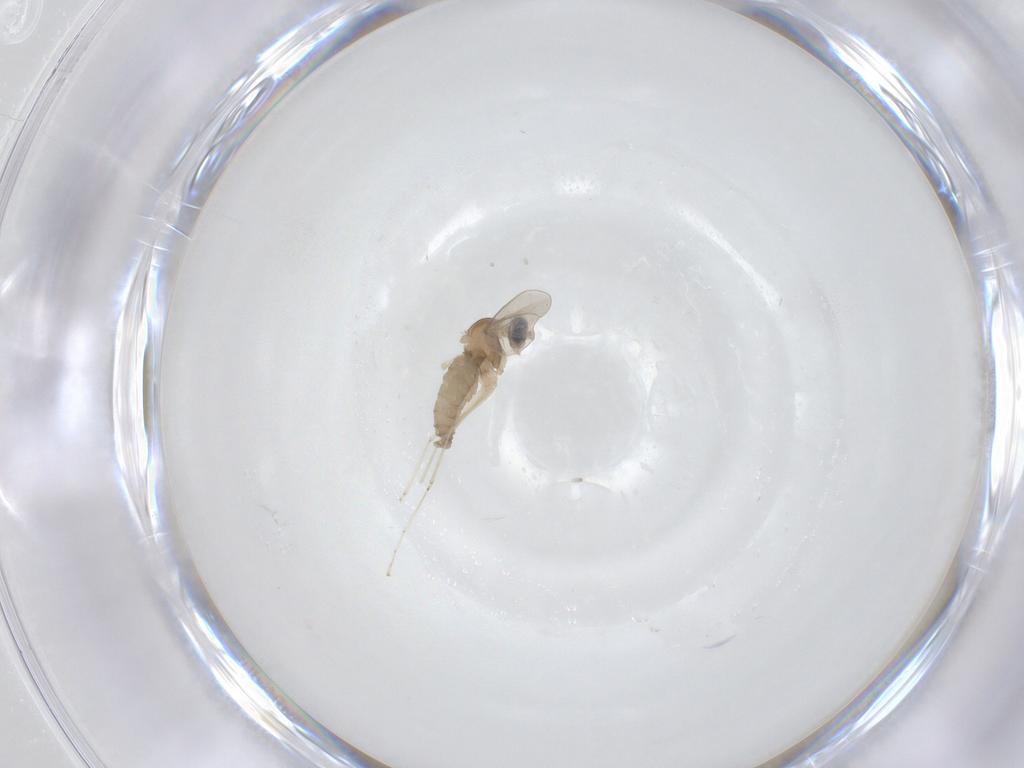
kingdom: Animalia
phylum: Arthropoda
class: Insecta
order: Diptera
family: Cecidomyiidae
